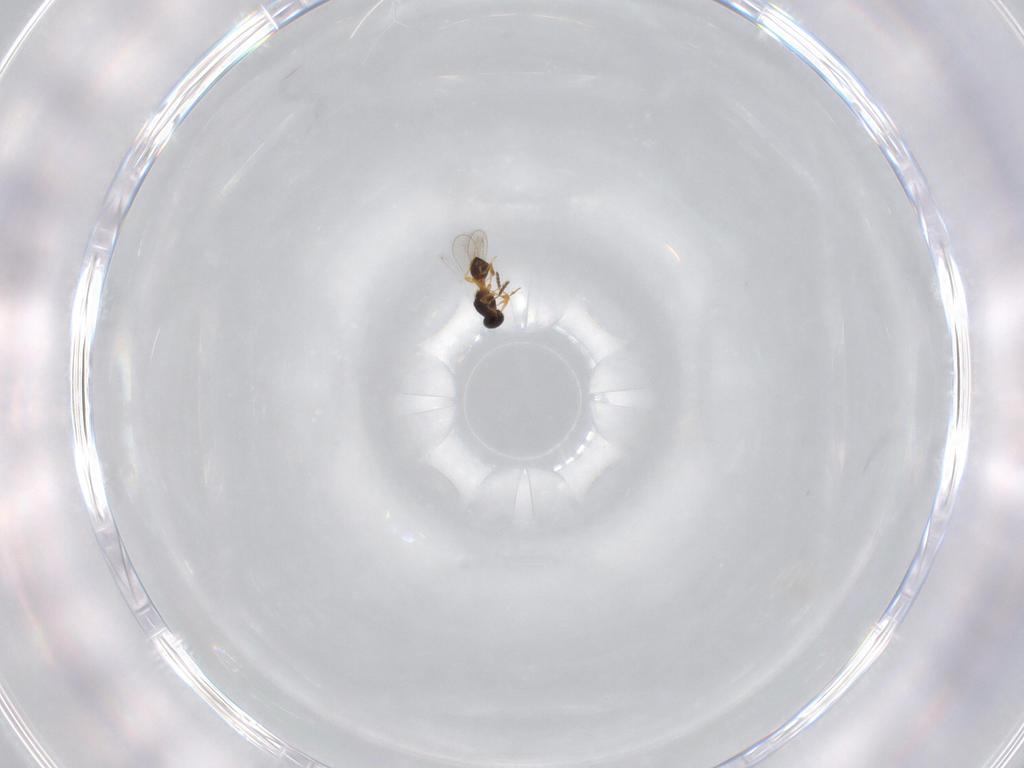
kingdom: Animalia
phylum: Arthropoda
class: Insecta
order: Hymenoptera
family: Platygastridae
